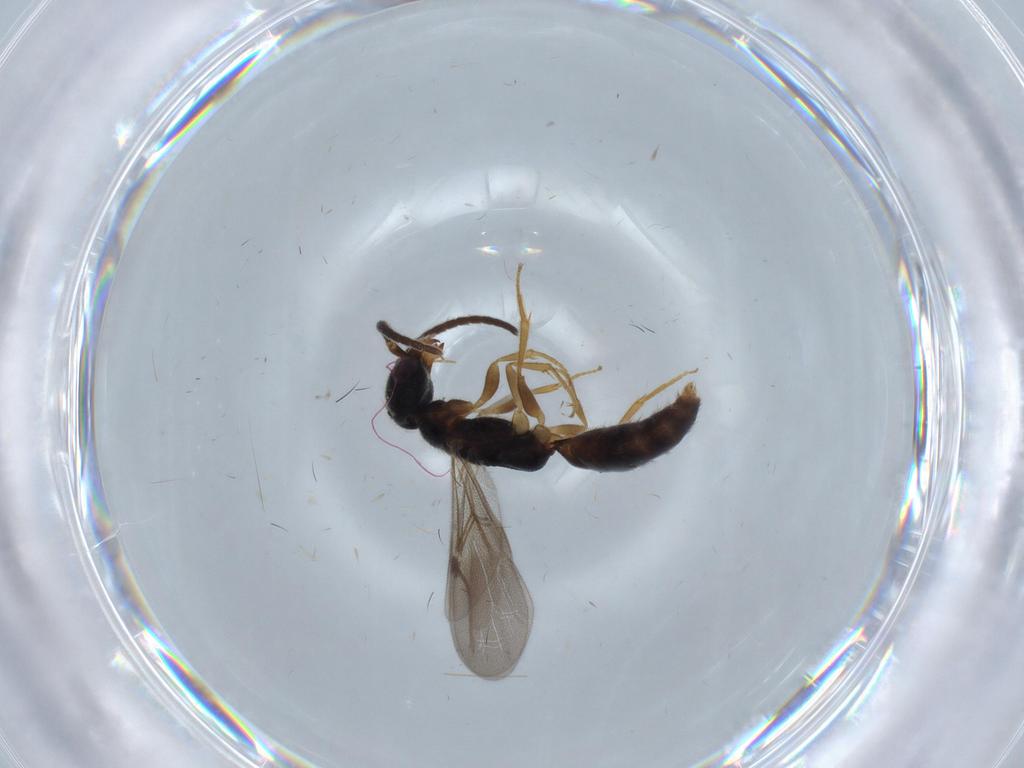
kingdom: Animalia
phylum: Arthropoda
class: Insecta
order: Hymenoptera
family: Bethylidae
